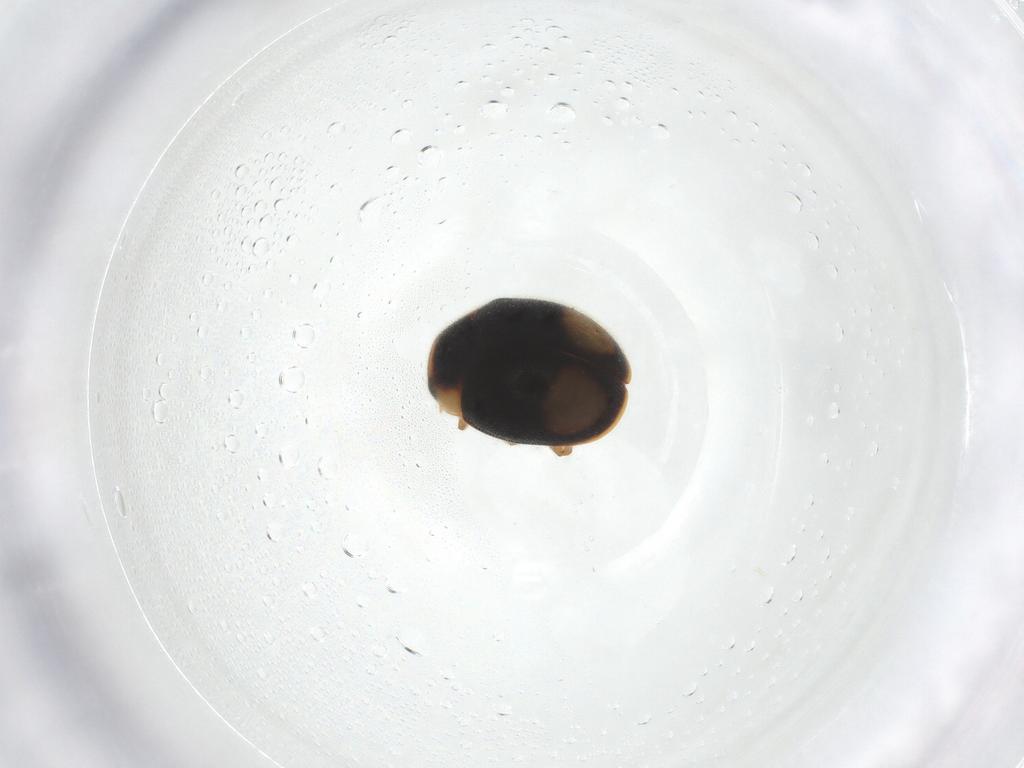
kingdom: Animalia
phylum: Arthropoda
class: Insecta
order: Coleoptera
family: Coccinellidae
